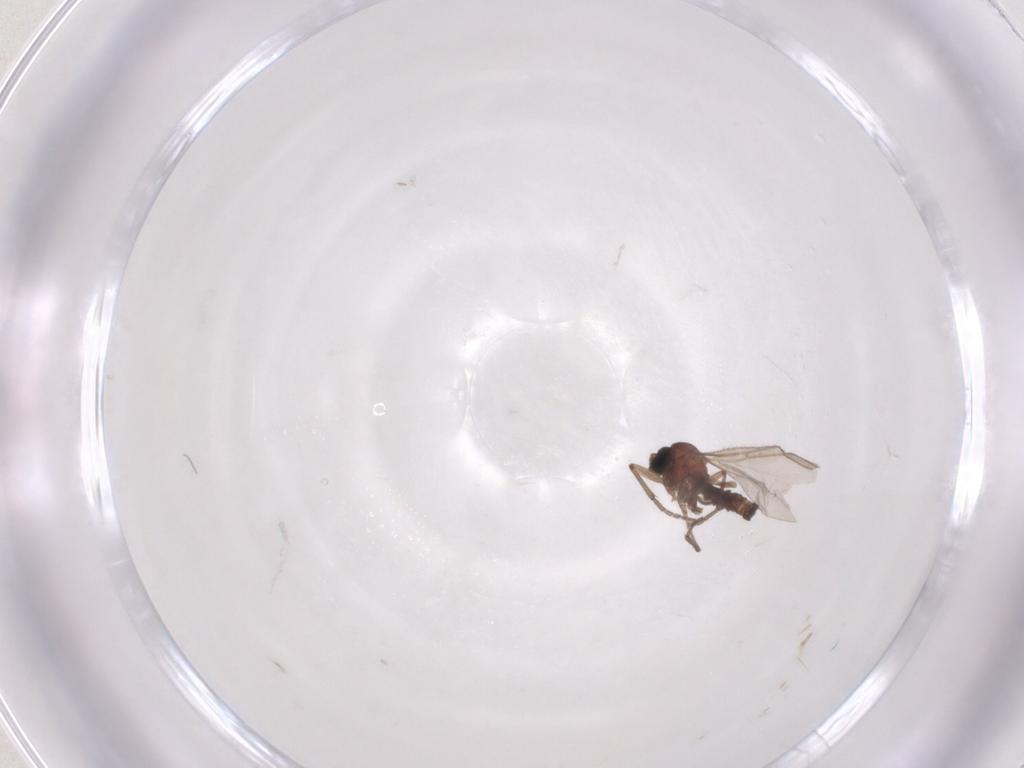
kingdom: Animalia
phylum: Arthropoda
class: Insecta
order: Diptera
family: Sciaridae
